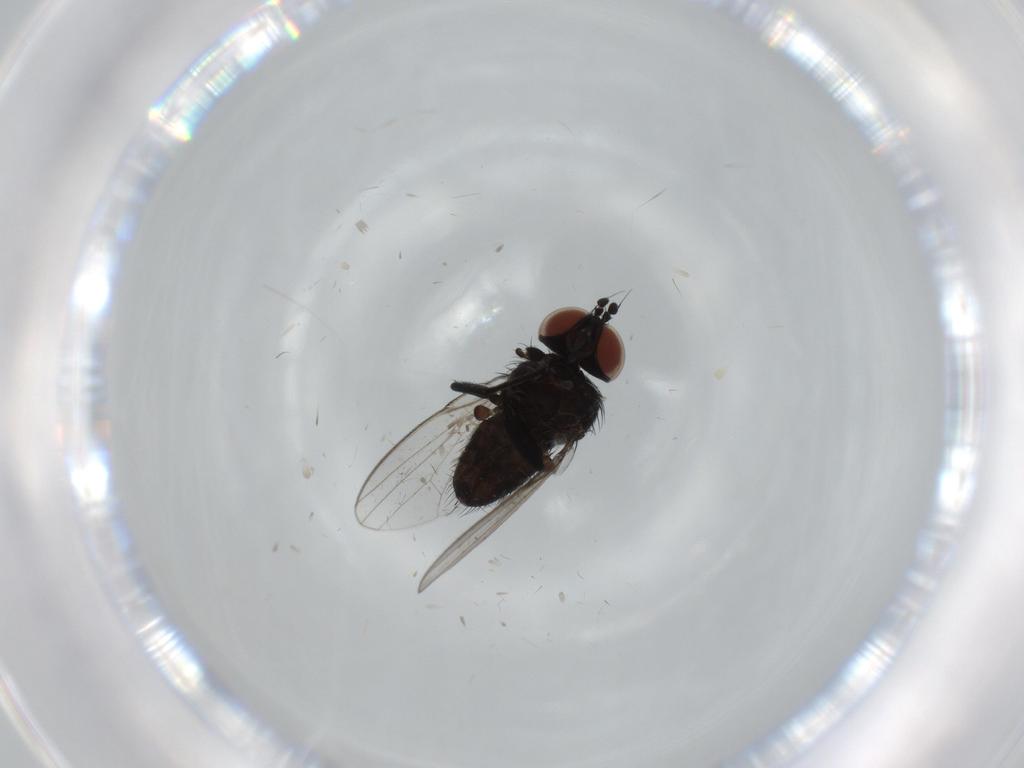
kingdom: Animalia
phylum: Arthropoda
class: Insecta
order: Diptera
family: Milichiidae
